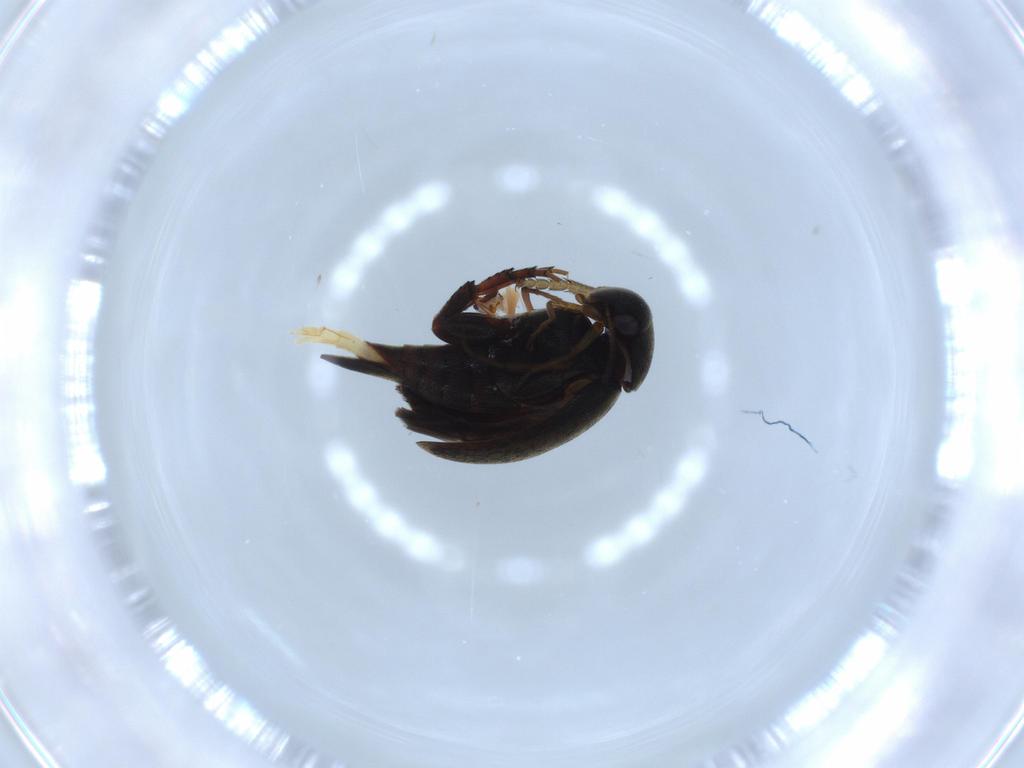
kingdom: Animalia
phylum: Arthropoda
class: Insecta
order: Coleoptera
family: Mordellidae
